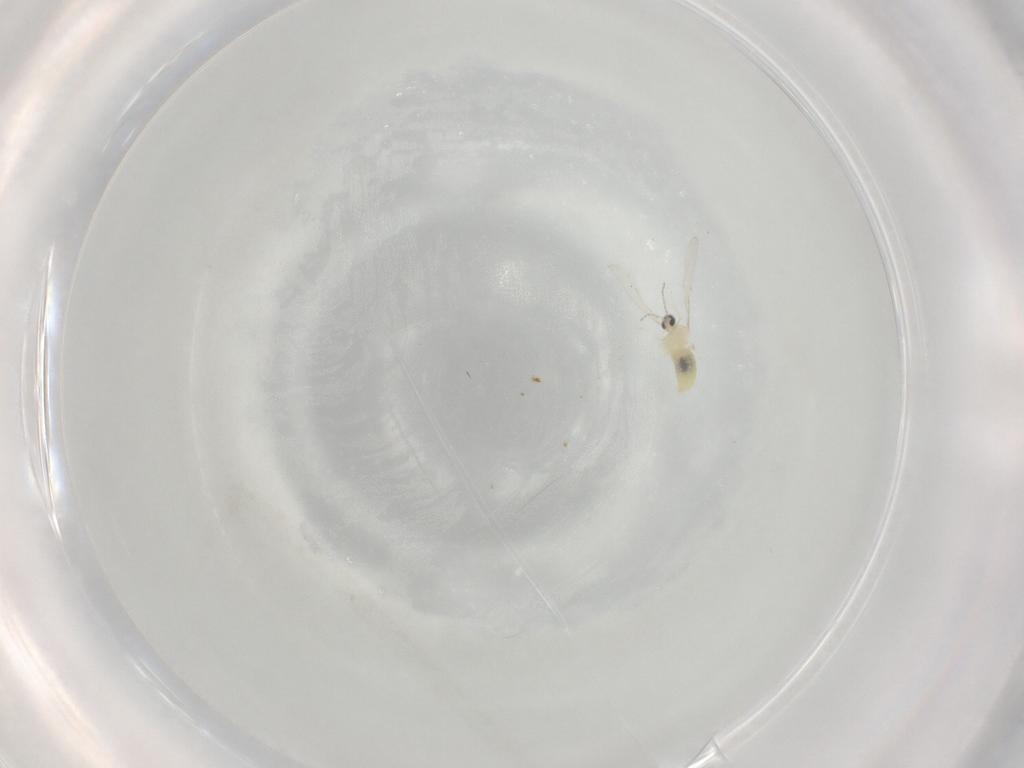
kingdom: Animalia
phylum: Arthropoda
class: Insecta
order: Diptera
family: Cecidomyiidae
